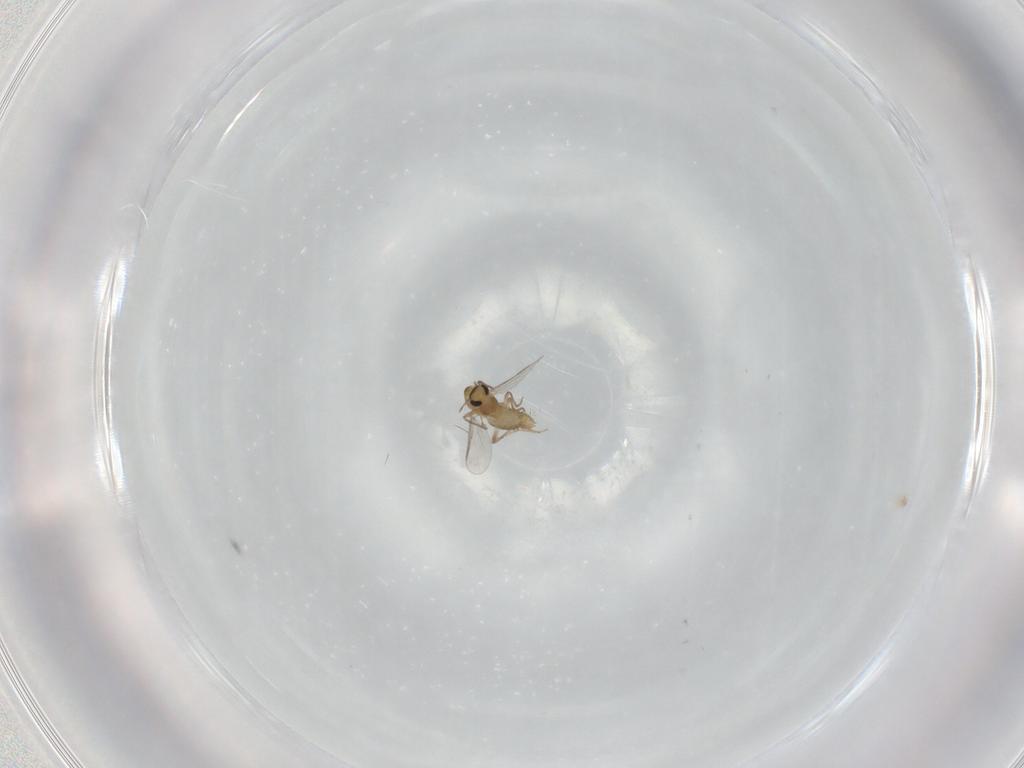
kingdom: Animalia
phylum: Arthropoda
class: Insecta
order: Diptera
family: Chironomidae
